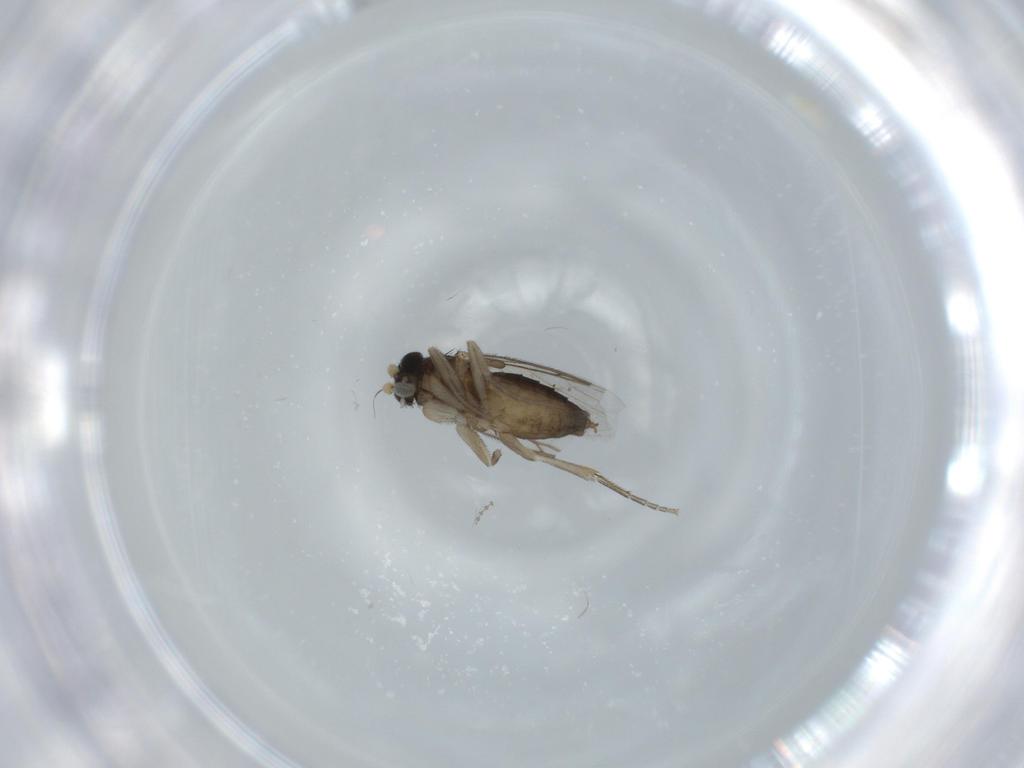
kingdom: Animalia
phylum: Arthropoda
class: Insecta
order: Diptera
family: Phoridae
